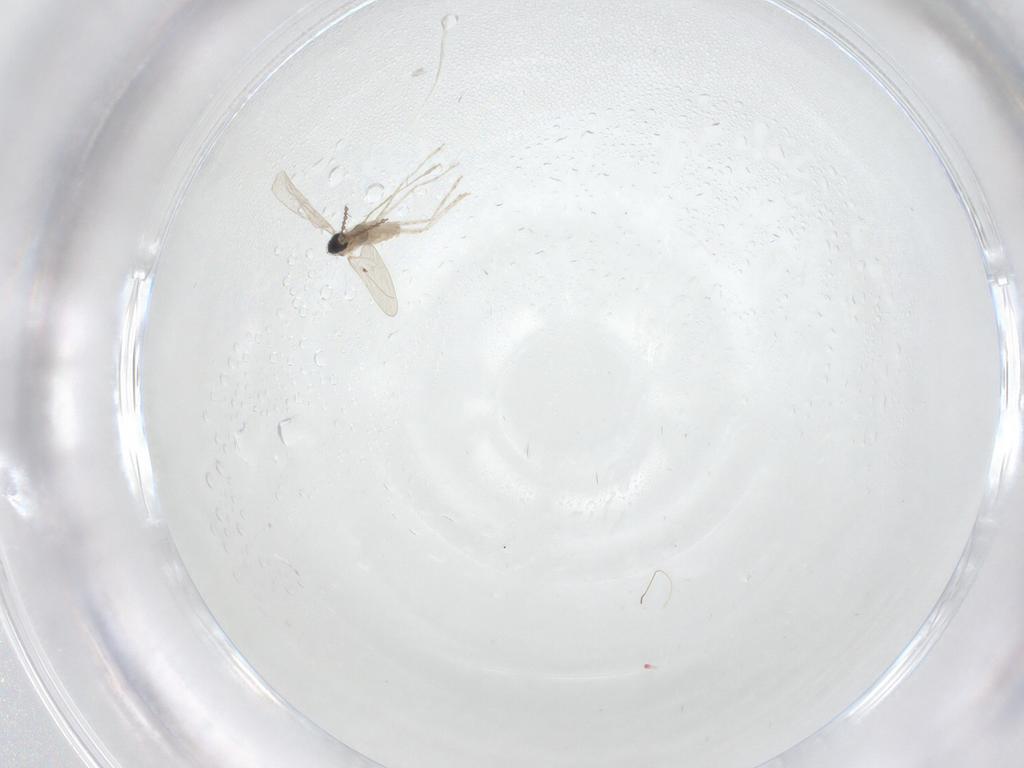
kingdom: Animalia
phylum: Arthropoda
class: Insecta
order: Diptera
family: Cecidomyiidae
